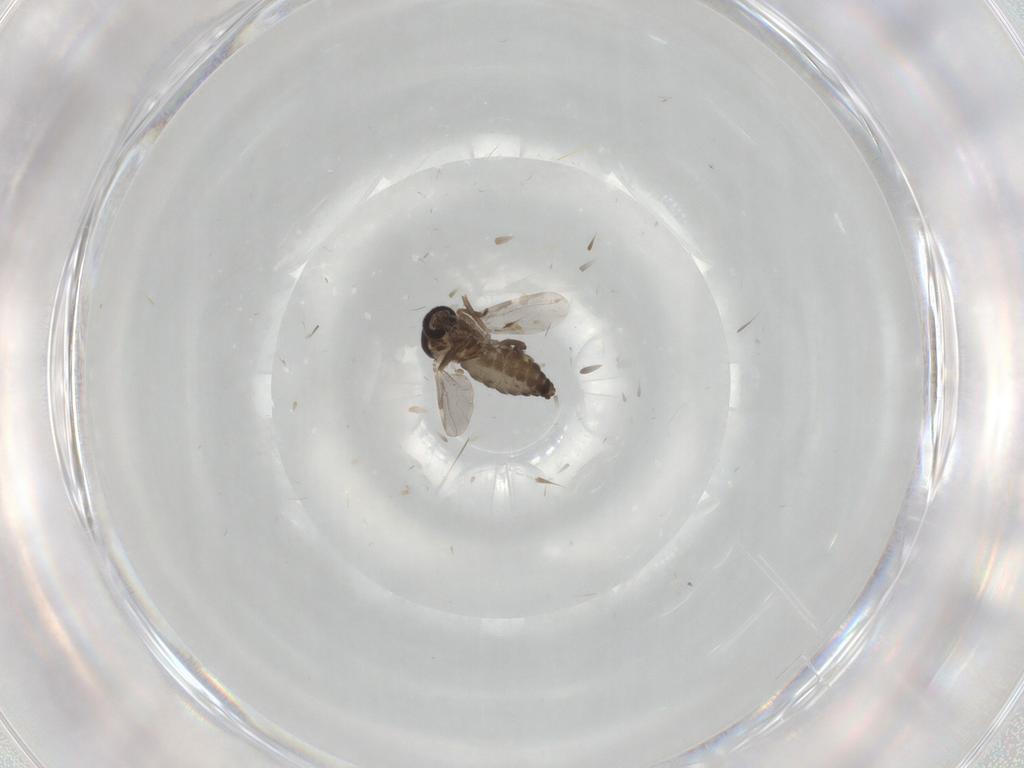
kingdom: Animalia
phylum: Arthropoda
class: Insecta
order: Diptera
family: Ceratopogonidae
